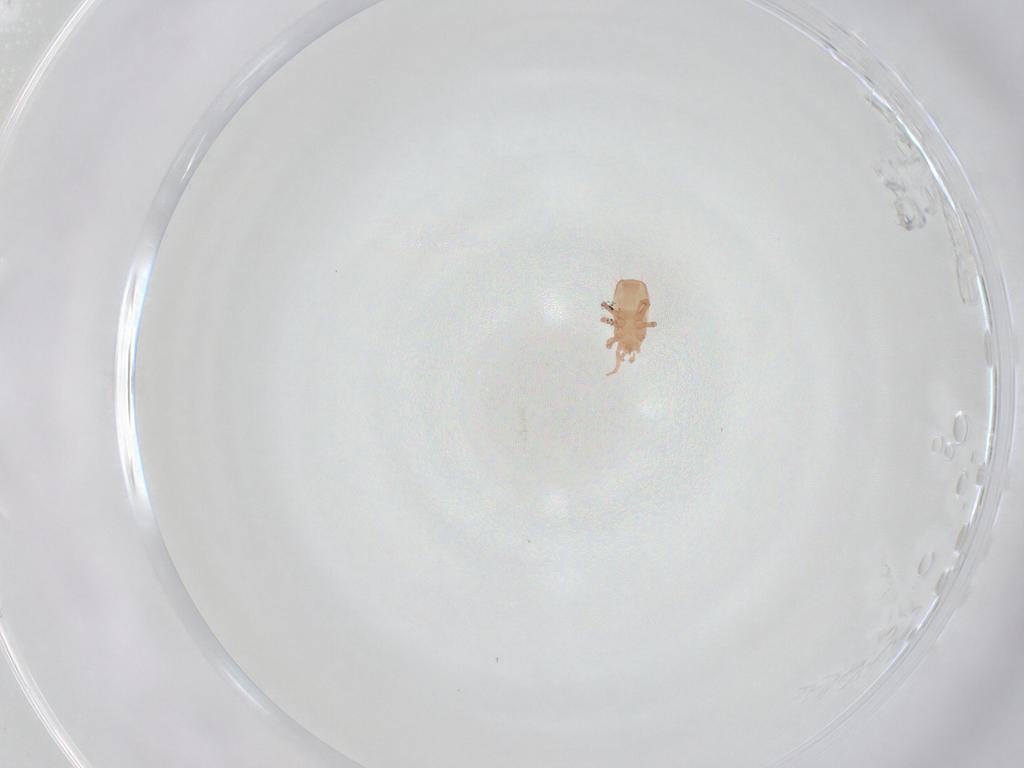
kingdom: Animalia
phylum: Arthropoda
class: Arachnida
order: Mesostigmata
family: Digamasellidae
